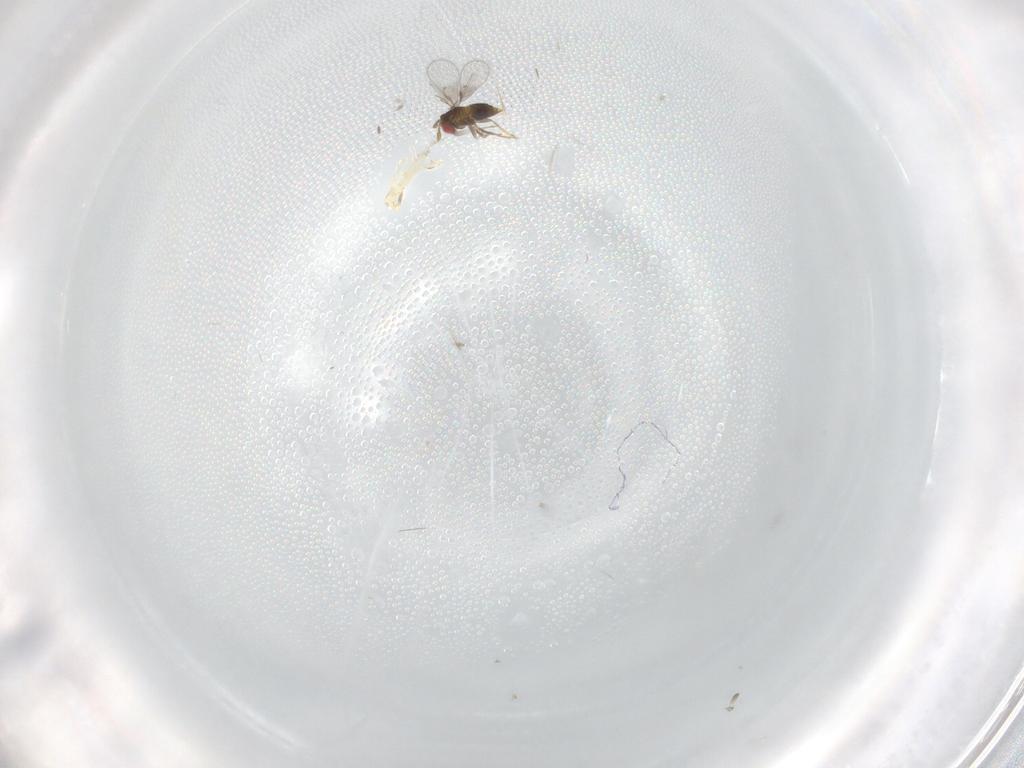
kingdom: Animalia
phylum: Arthropoda
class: Insecta
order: Hymenoptera
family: Trichogrammatidae
